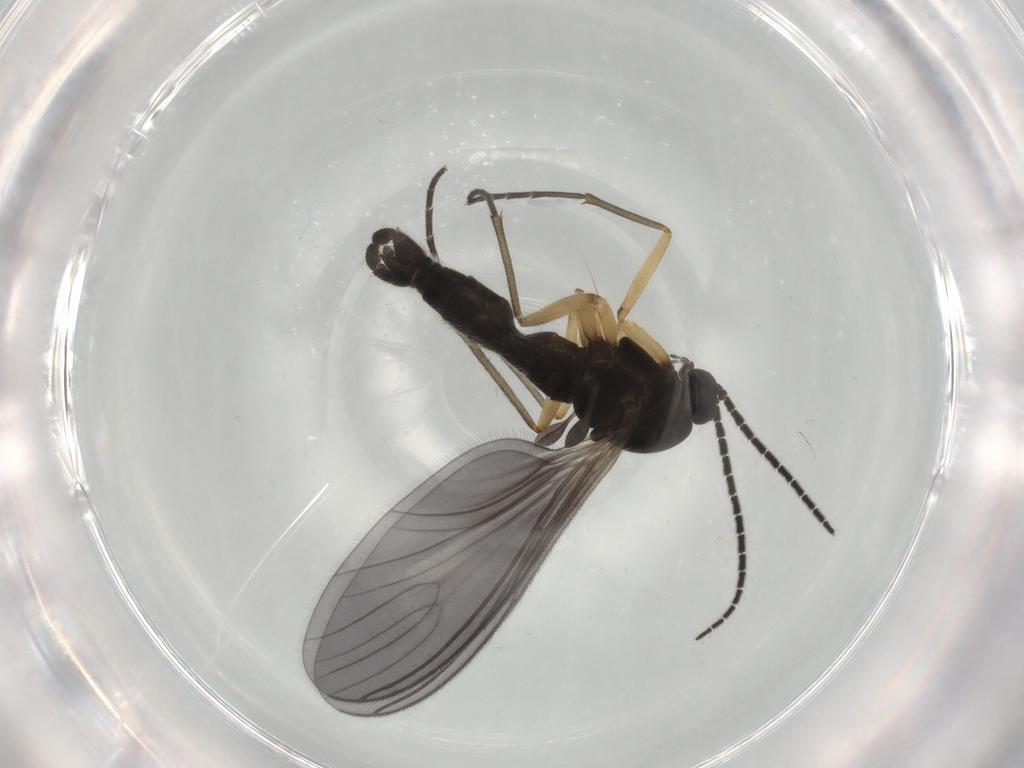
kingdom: Animalia
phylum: Arthropoda
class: Insecta
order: Diptera
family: Sciaridae
